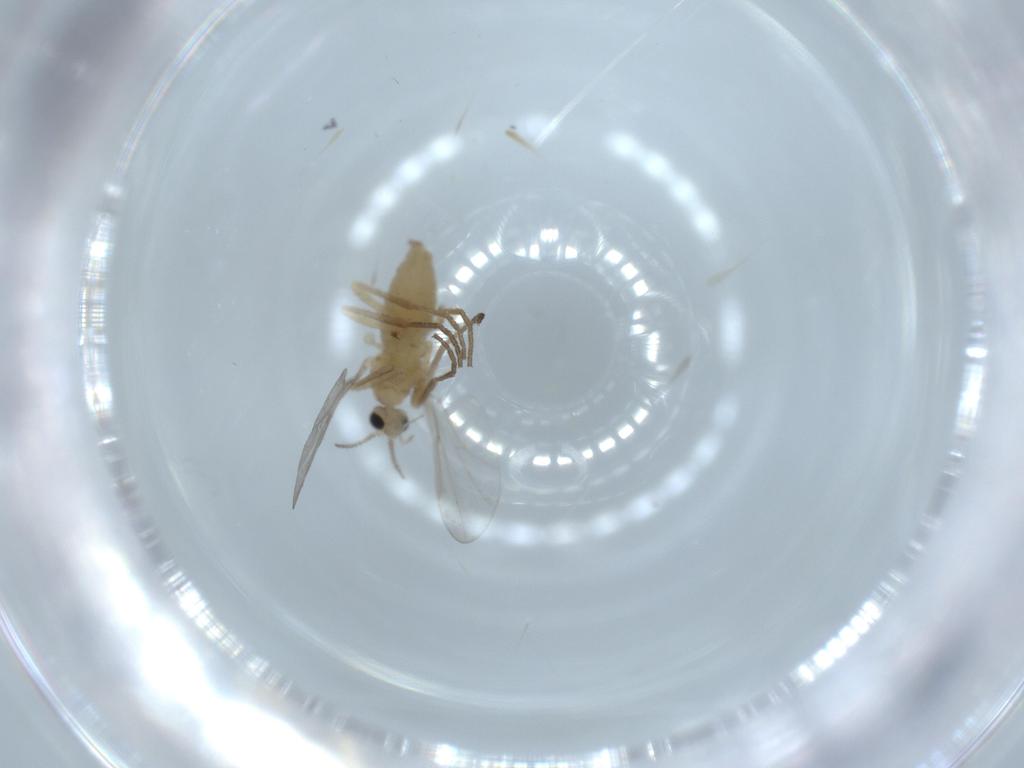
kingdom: Animalia
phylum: Arthropoda
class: Insecta
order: Diptera
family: Cecidomyiidae
